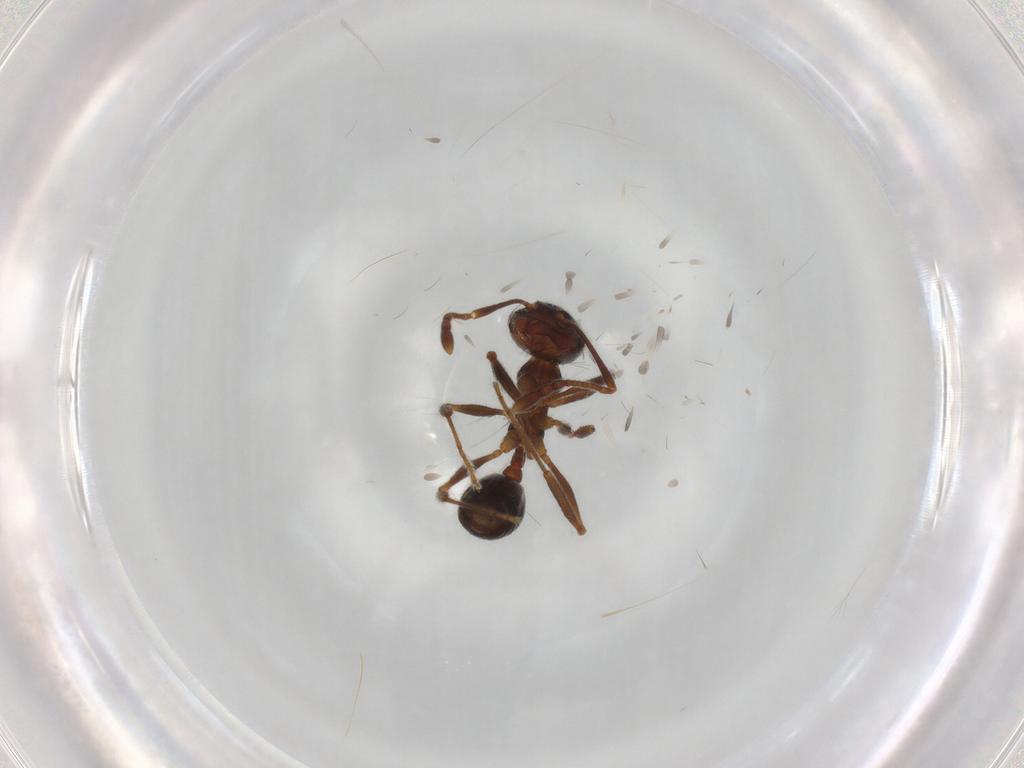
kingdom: Animalia
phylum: Arthropoda
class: Insecta
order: Hymenoptera
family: Formicidae
